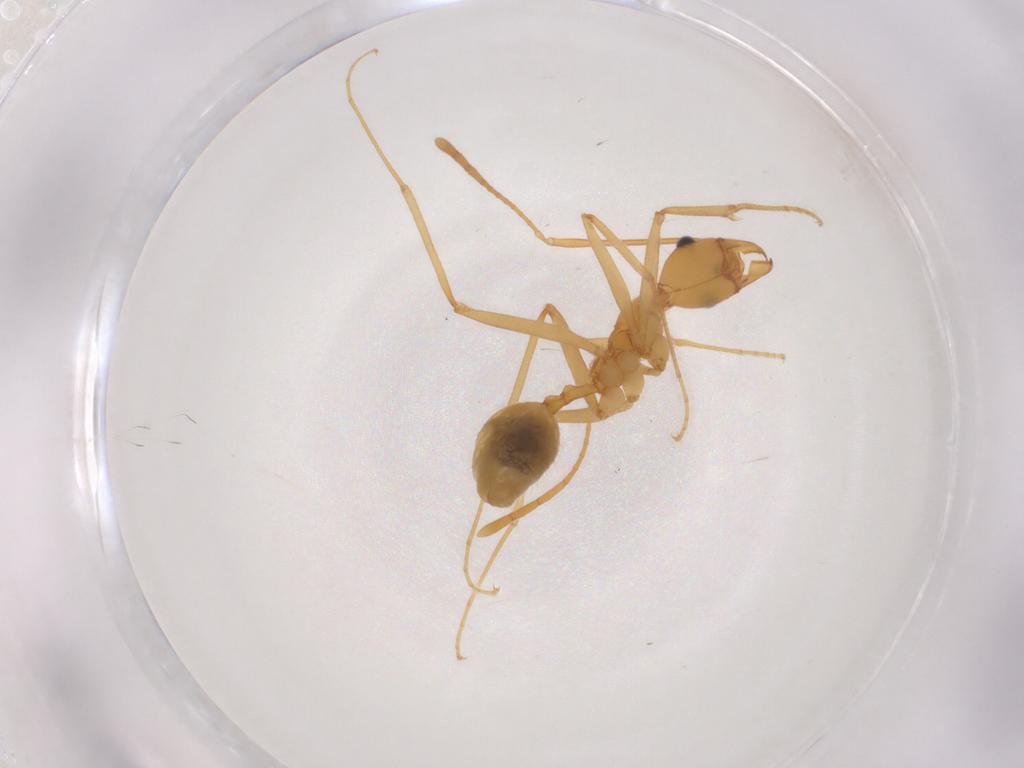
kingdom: Animalia
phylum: Arthropoda
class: Insecta
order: Hymenoptera
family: Formicidae
